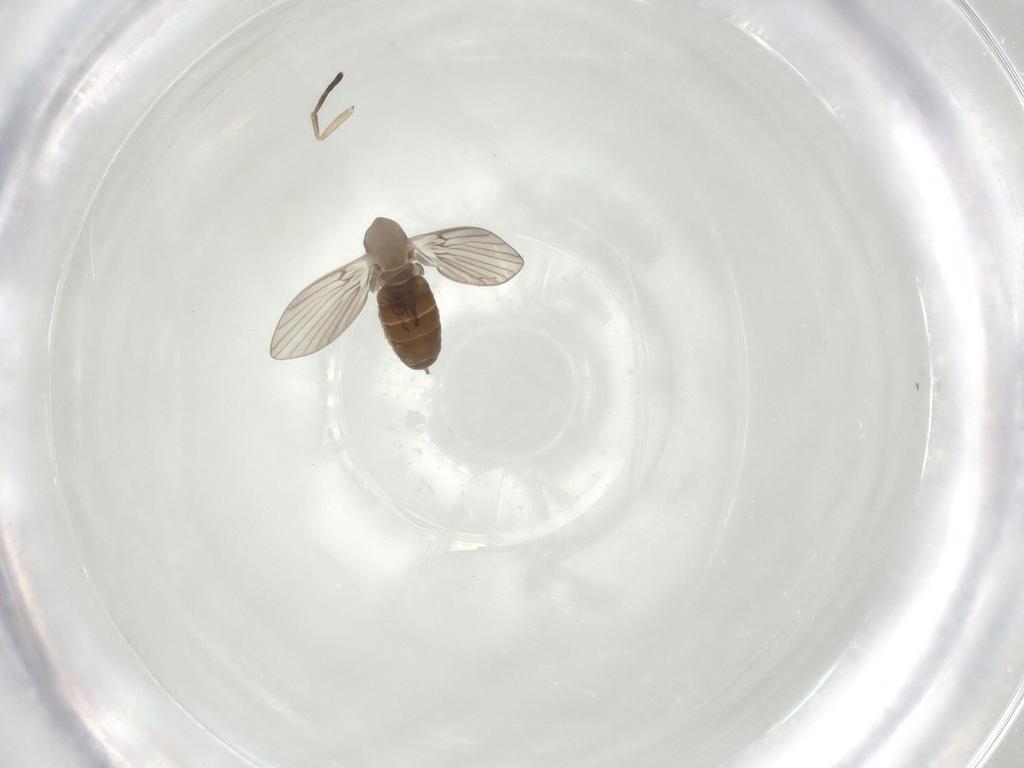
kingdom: Animalia
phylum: Arthropoda
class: Insecta
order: Diptera
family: Psychodidae
